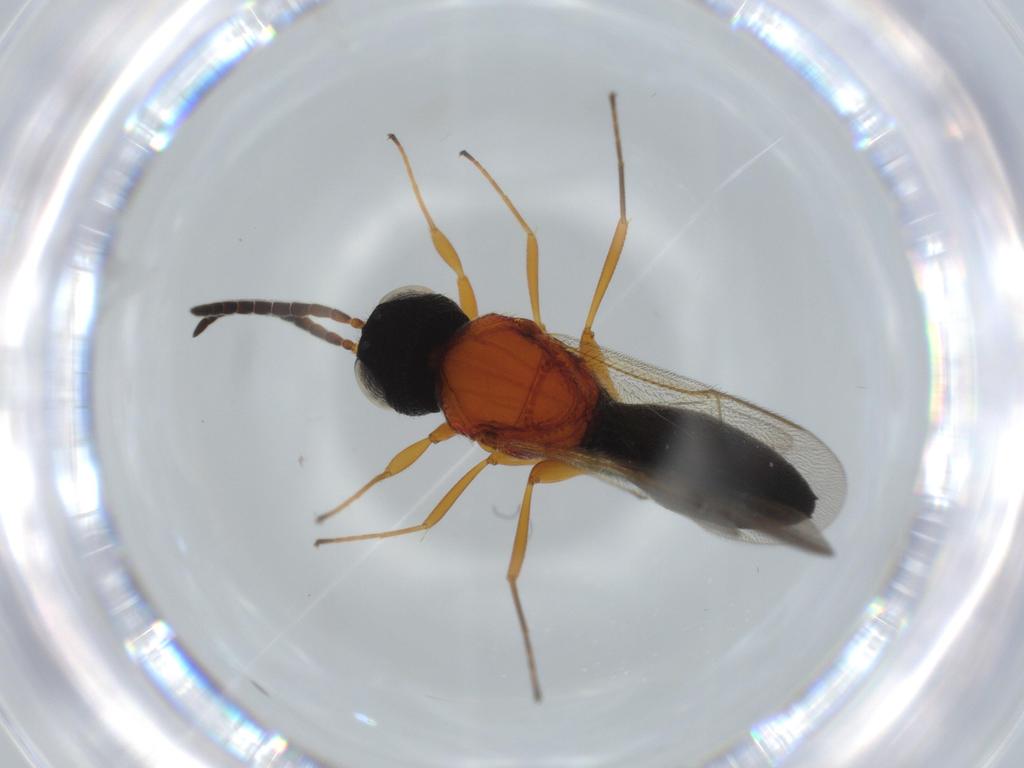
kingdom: Animalia
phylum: Arthropoda
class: Insecta
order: Hymenoptera
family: Scelionidae
